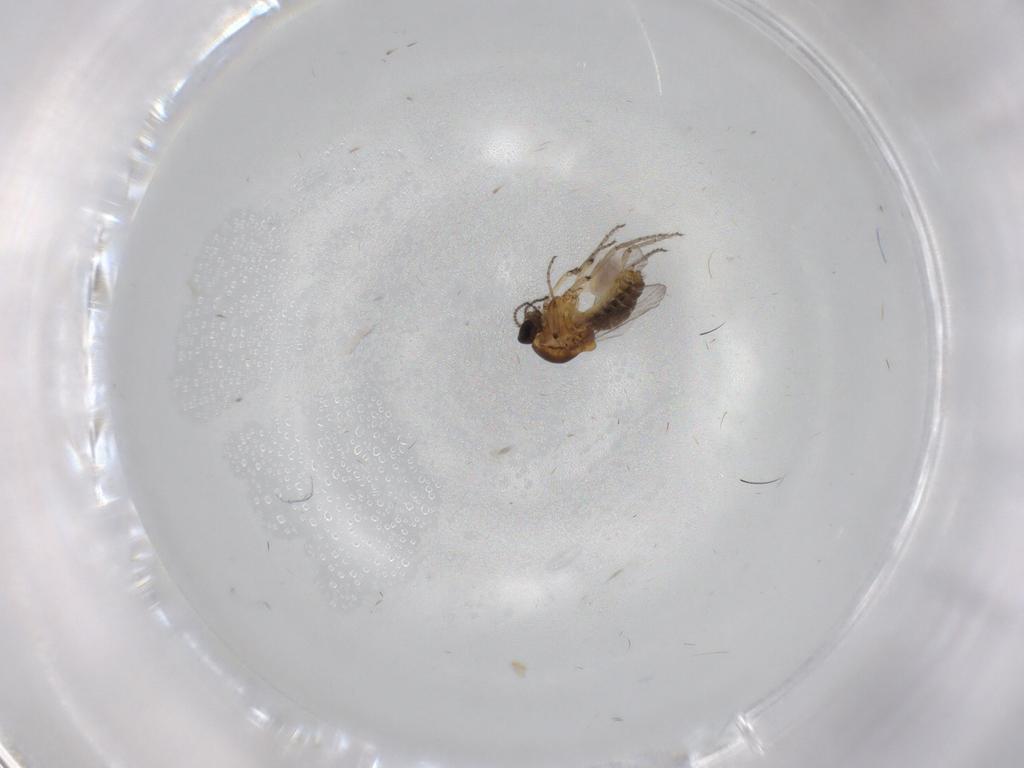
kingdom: Animalia
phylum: Arthropoda
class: Insecta
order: Diptera
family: Ceratopogonidae
